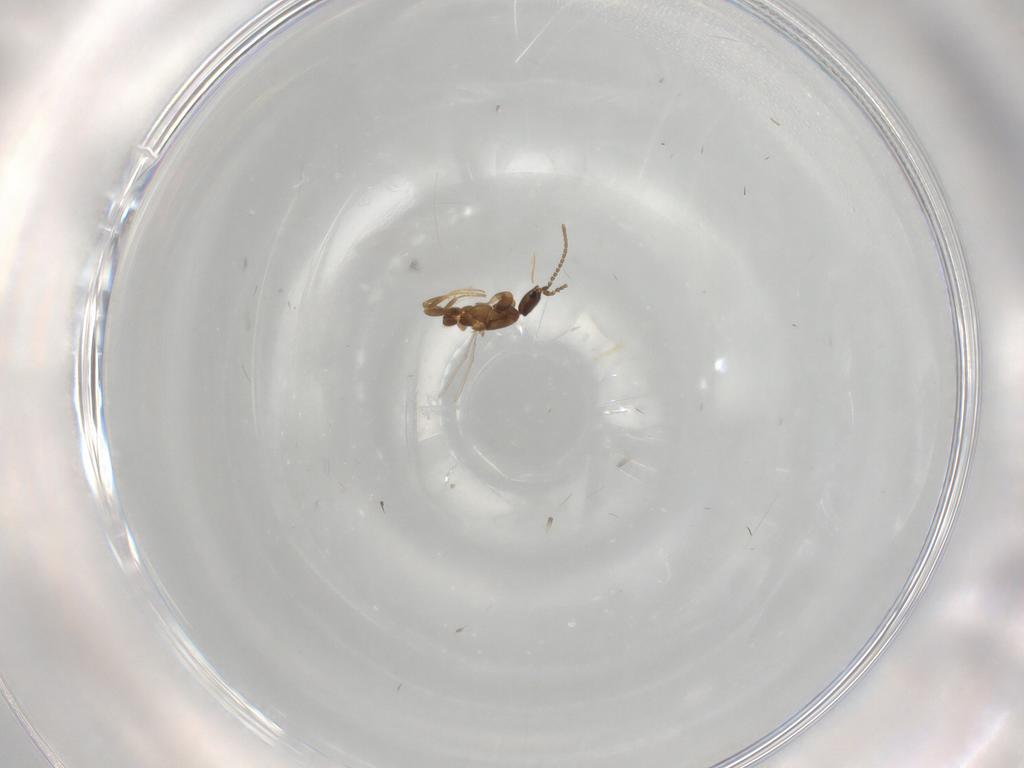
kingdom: Animalia
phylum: Arthropoda
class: Insecta
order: Hymenoptera
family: Formicidae
